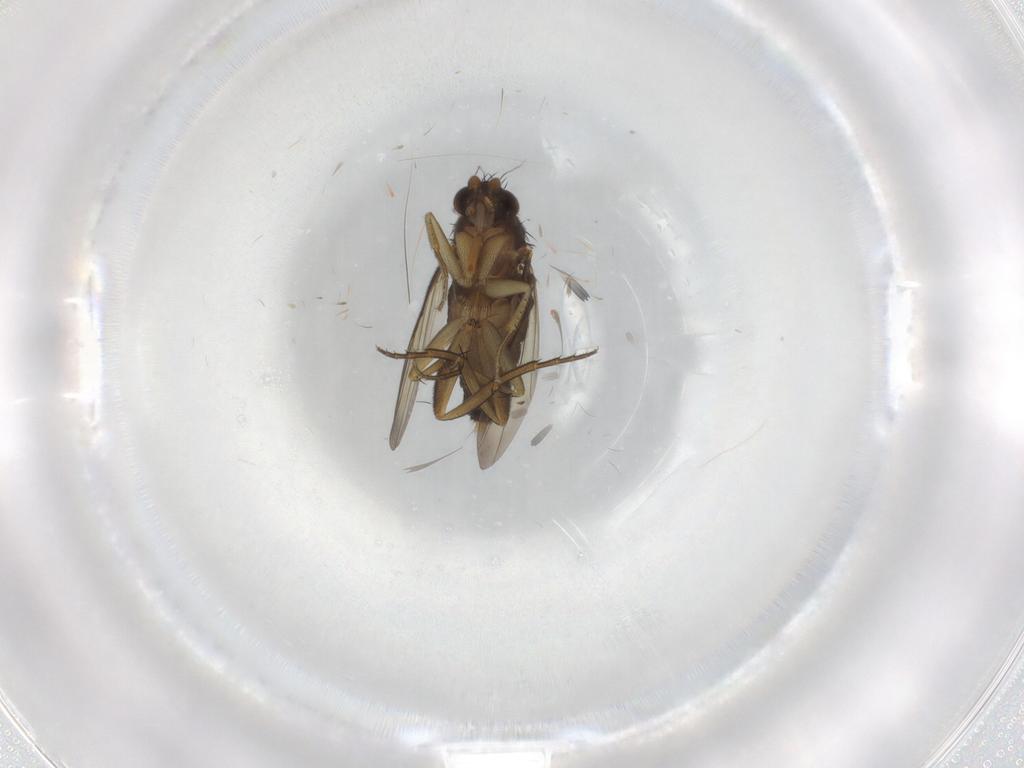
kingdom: Animalia
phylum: Arthropoda
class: Insecta
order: Diptera
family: Phoridae
